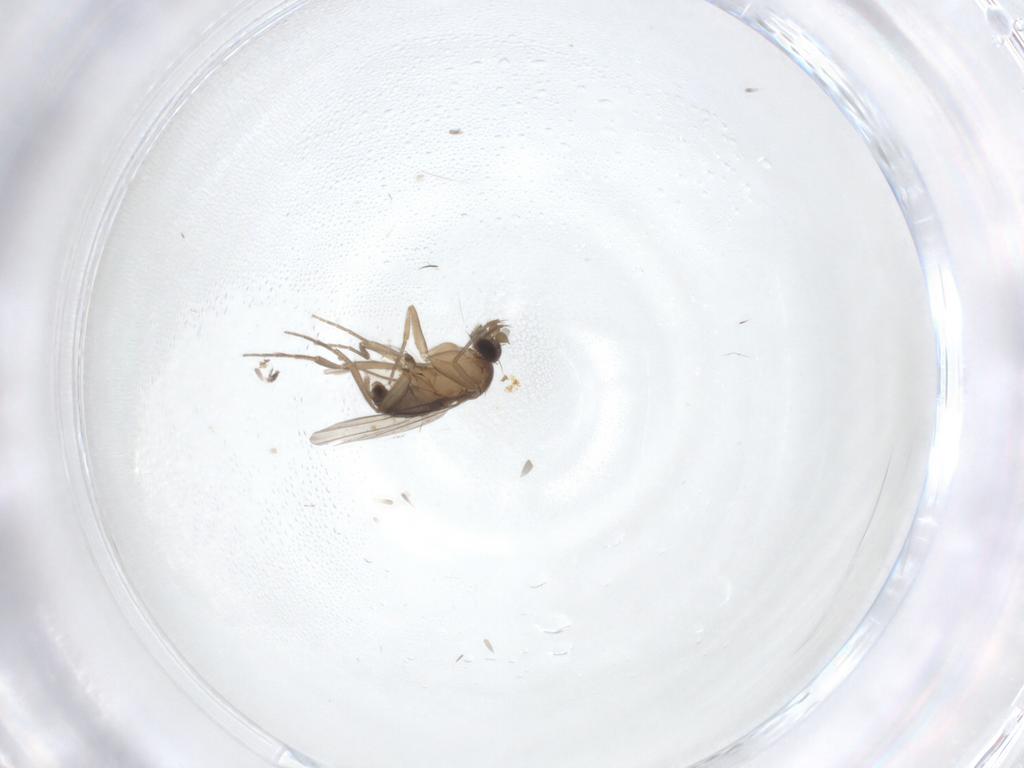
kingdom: Animalia
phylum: Arthropoda
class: Insecta
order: Diptera
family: Phoridae
